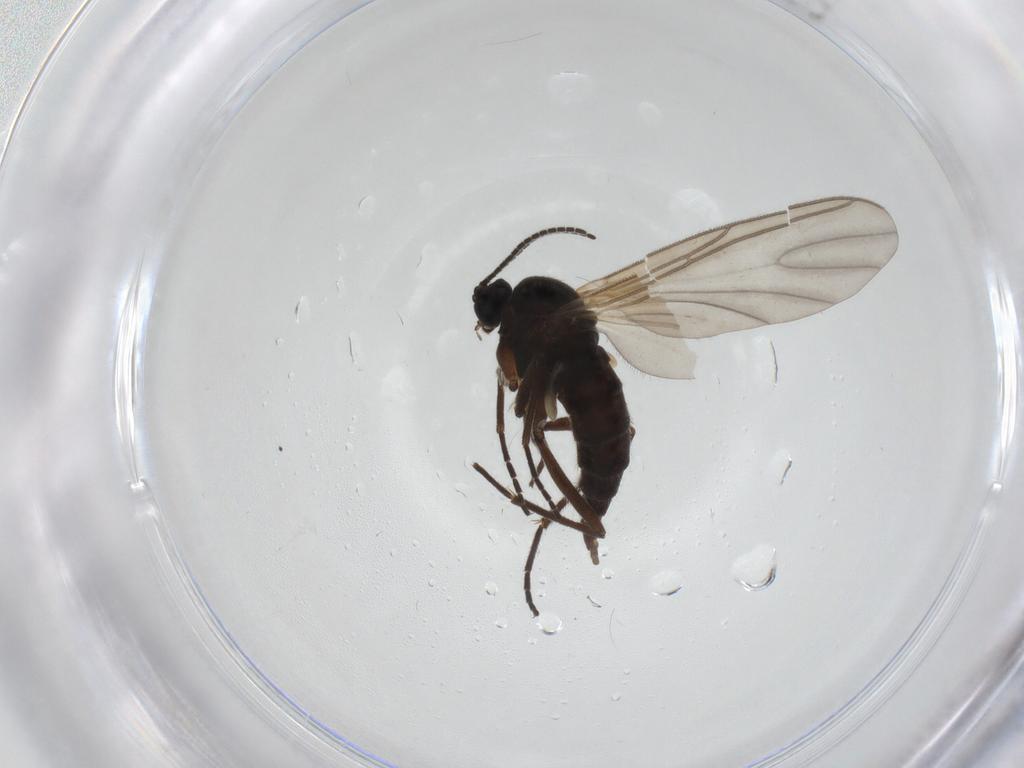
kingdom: Animalia
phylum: Arthropoda
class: Insecta
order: Diptera
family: Sciaridae
